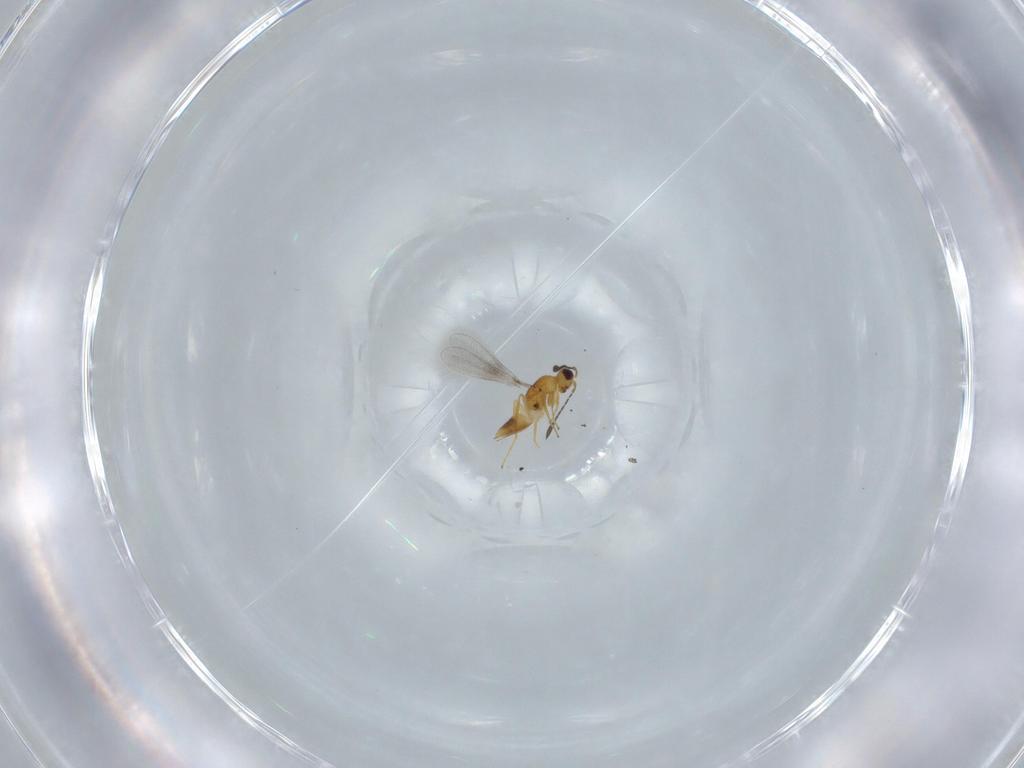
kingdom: Animalia
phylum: Arthropoda
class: Insecta
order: Hymenoptera
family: Mymaridae
